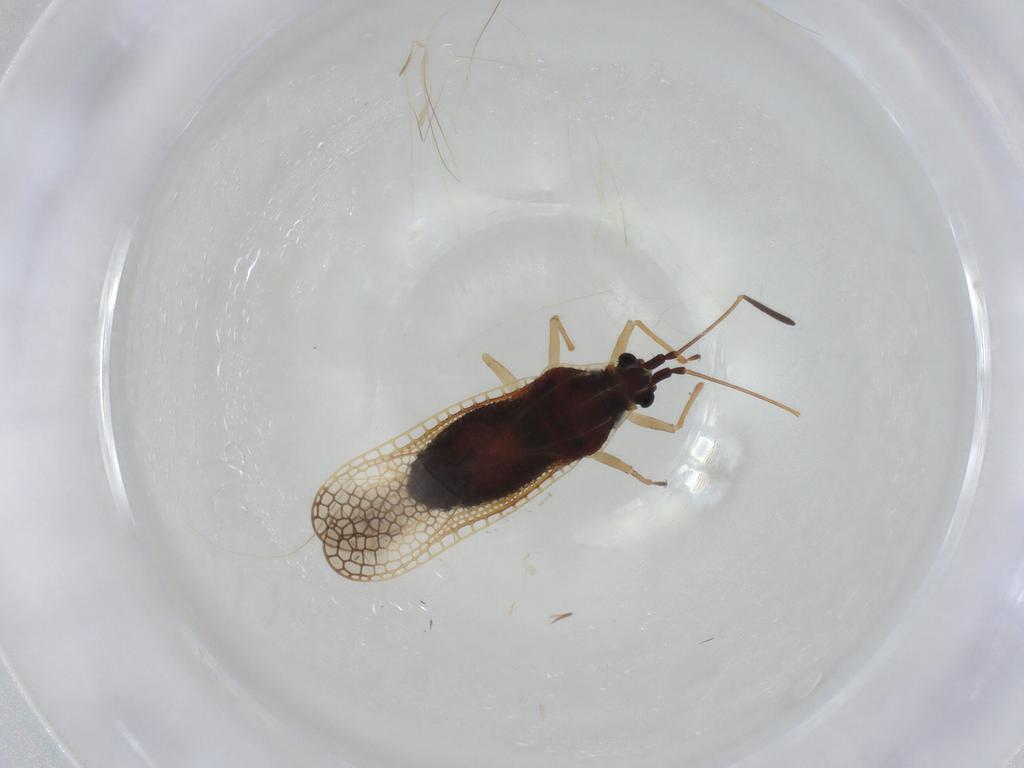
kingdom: Animalia
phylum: Arthropoda
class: Insecta
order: Hemiptera
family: Tingidae
